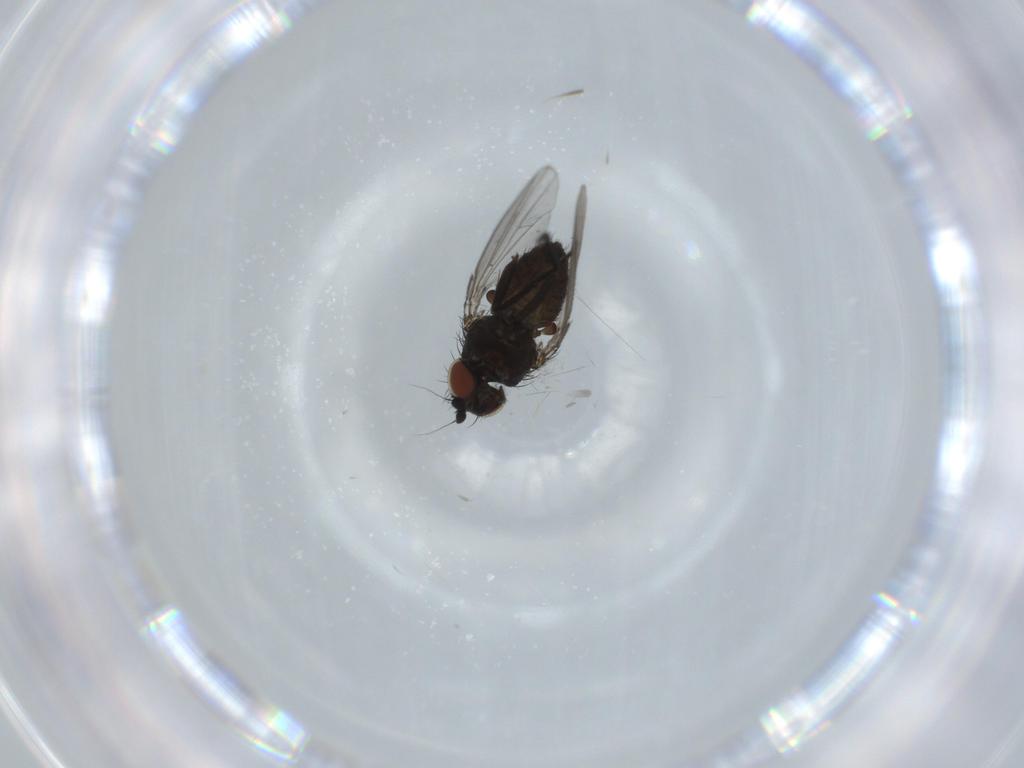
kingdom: Animalia
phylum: Arthropoda
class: Insecta
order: Diptera
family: Milichiidae
